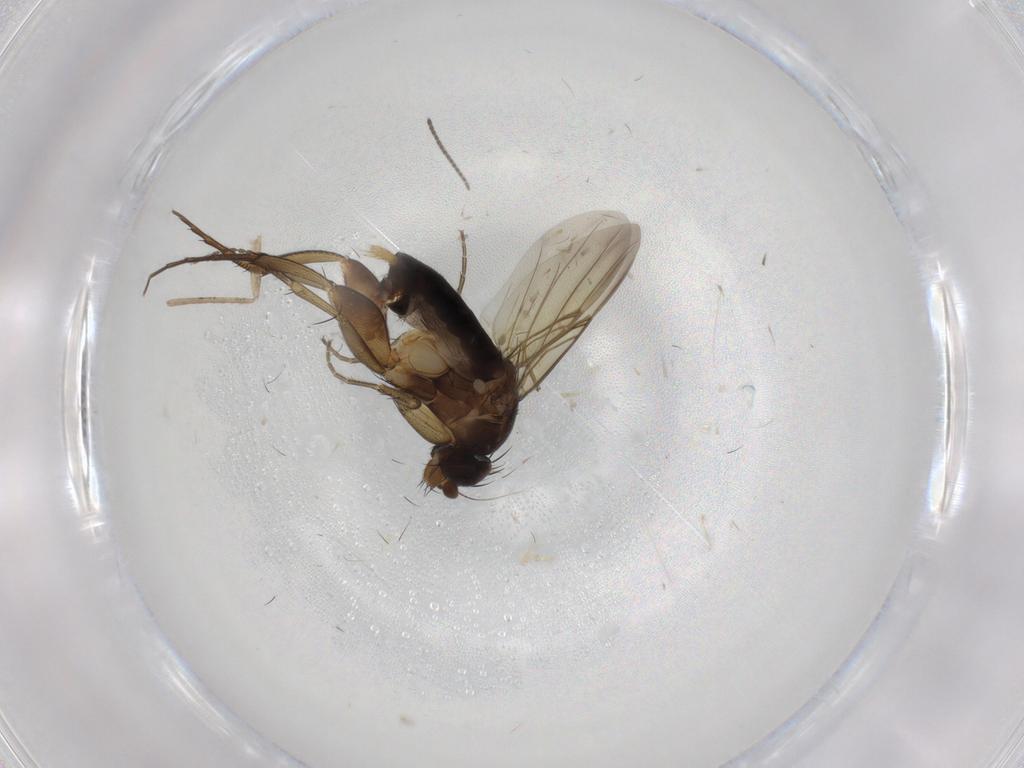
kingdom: Animalia
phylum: Arthropoda
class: Insecta
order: Diptera
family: Phoridae
